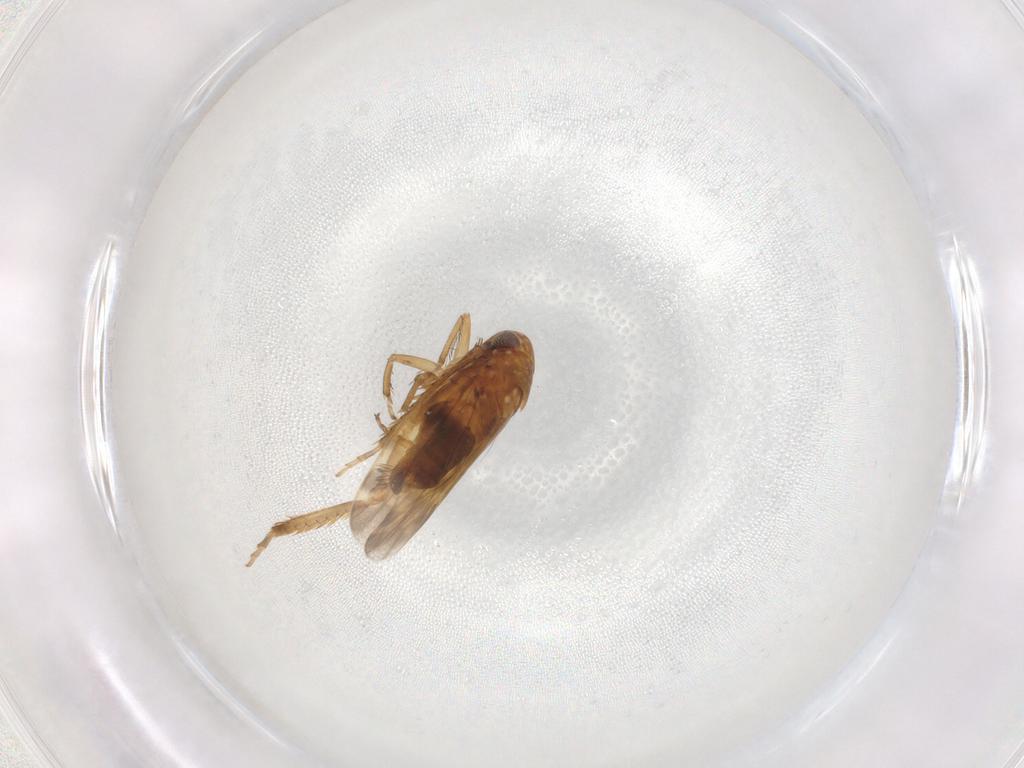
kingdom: Animalia
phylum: Arthropoda
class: Insecta
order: Hemiptera
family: Cicadellidae
